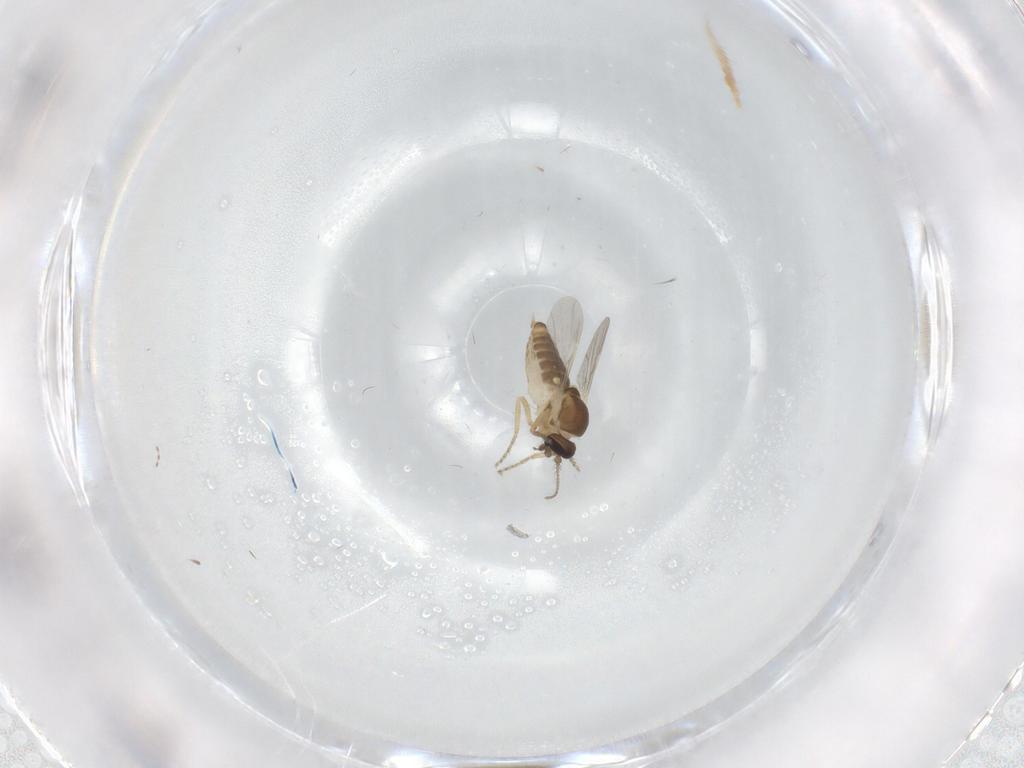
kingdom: Animalia
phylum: Arthropoda
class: Insecta
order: Diptera
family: Ceratopogonidae
